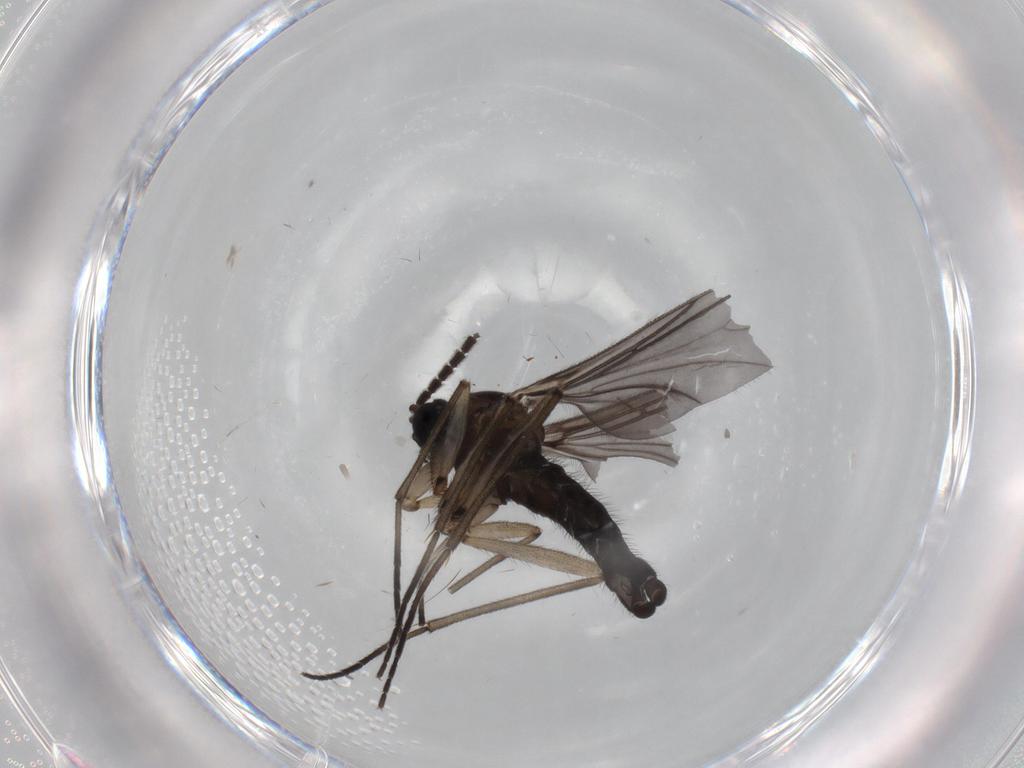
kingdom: Animalia
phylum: Arthropoda
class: Insecta
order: Diptera
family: Sciaridae
